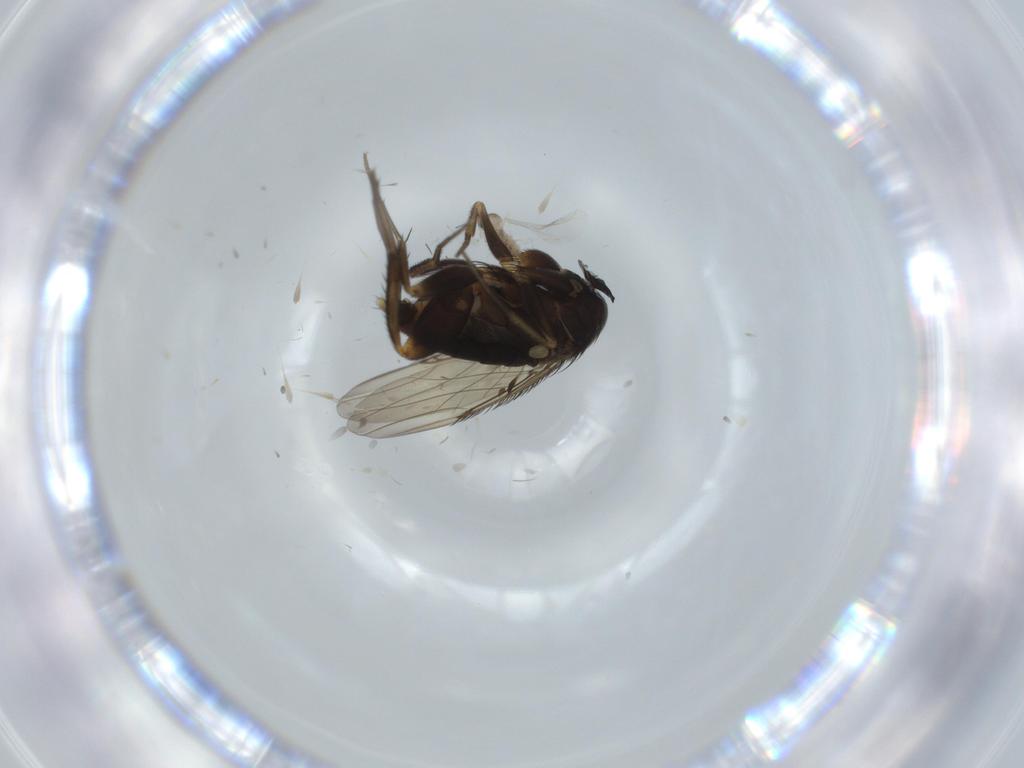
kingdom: Animalia
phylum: Arthropoda
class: Insecta
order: Diptera
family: Phoridae
